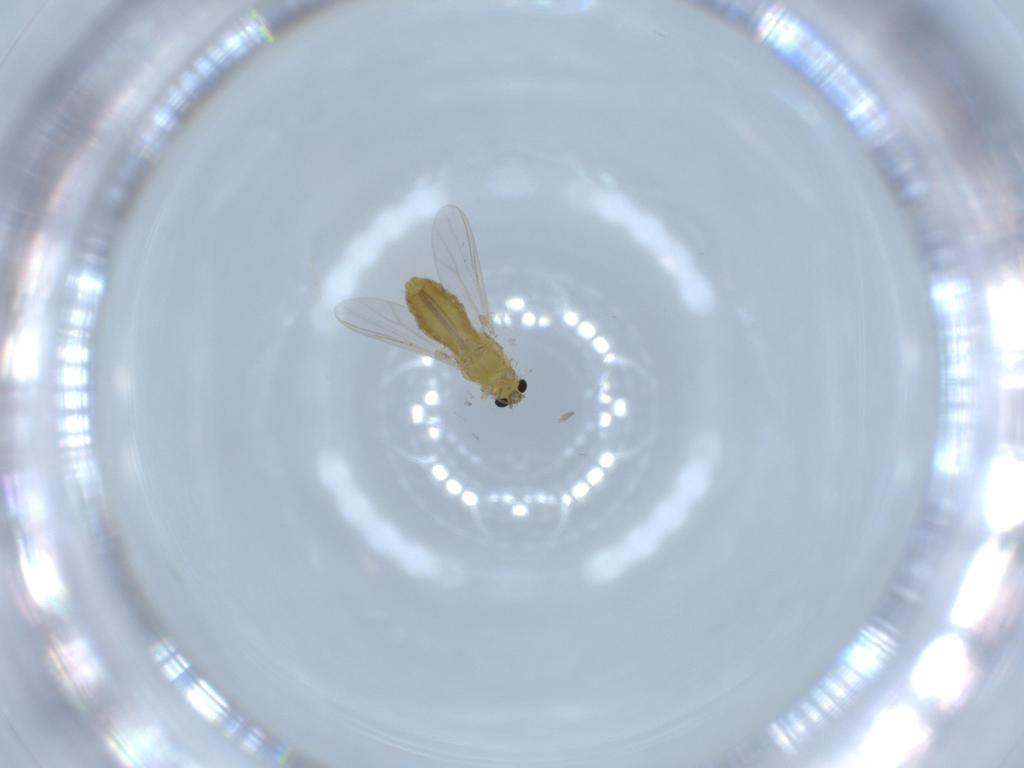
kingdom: Animalia
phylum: Arthropoda
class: Insecta
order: Diptera
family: Chironomidae
